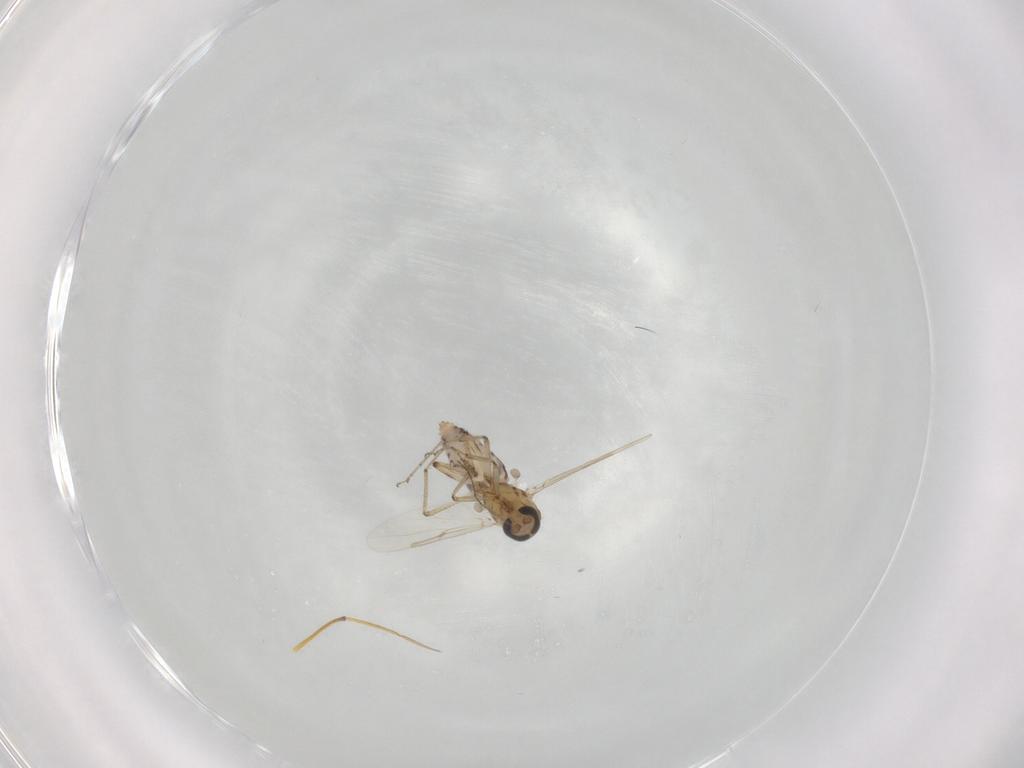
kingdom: Animalia
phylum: Arthropoda
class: Insecta
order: Diptera
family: Ceratopogonidae
